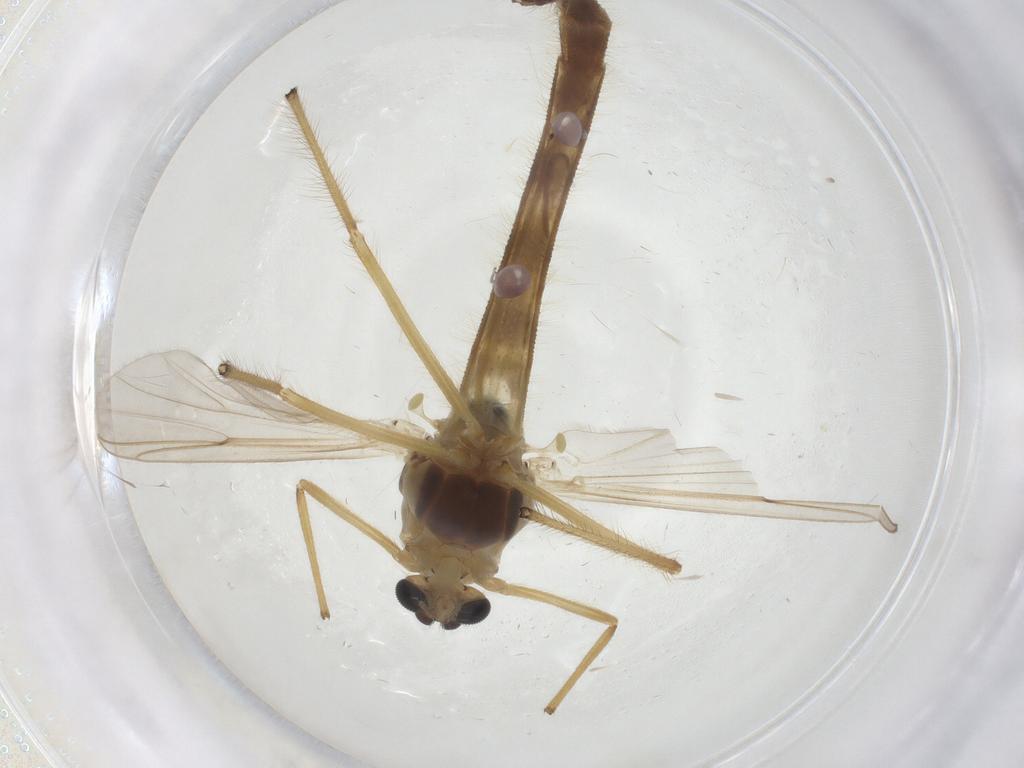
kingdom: Animalia
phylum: Arthropoda
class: Insecta
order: Diptera
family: Chironomidae
